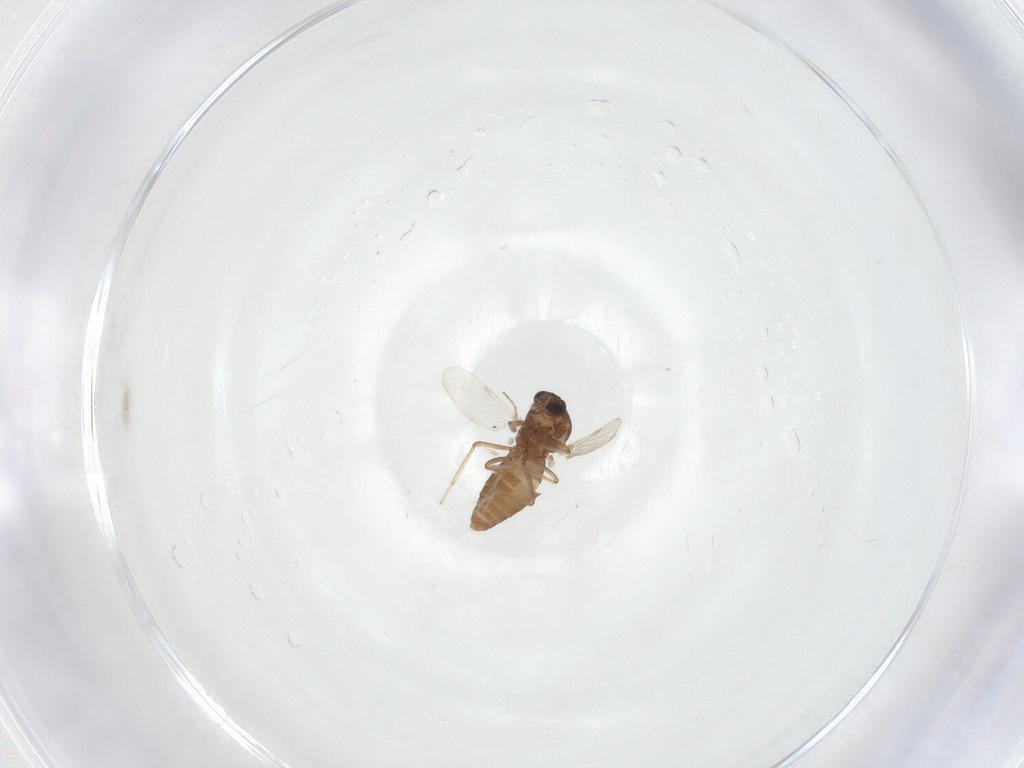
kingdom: Animalia
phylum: Arthropoda
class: Insecta
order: Diptera
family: Ceratopogonidae
